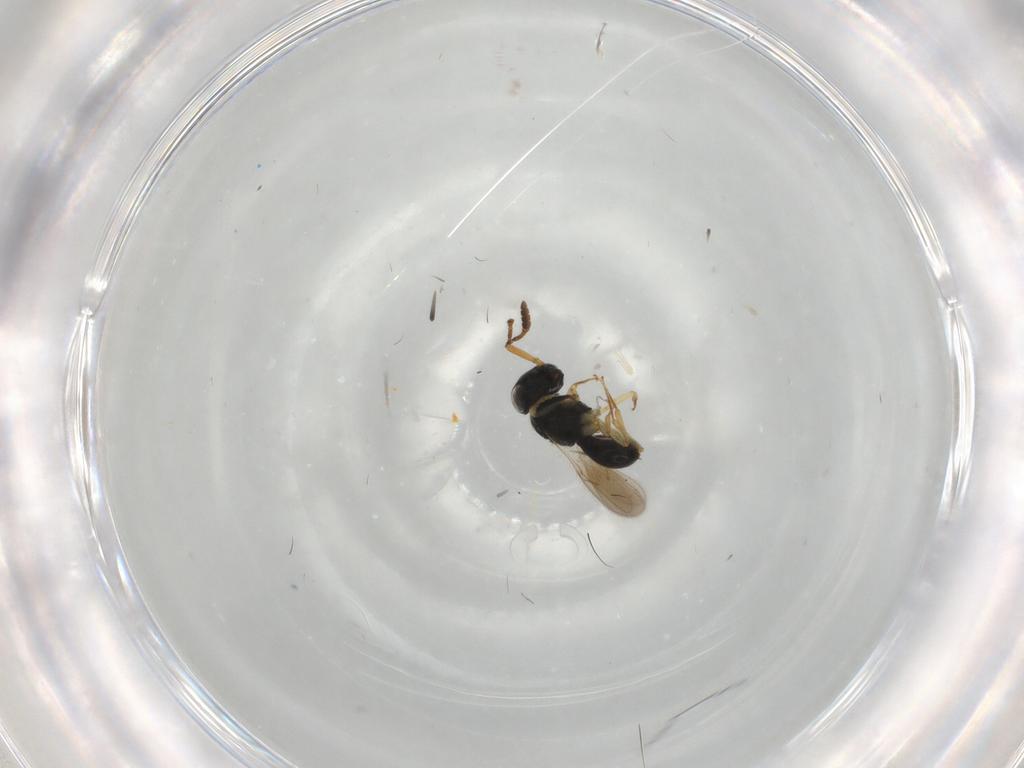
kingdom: Animalia
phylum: Arthropoda
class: Insecta
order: Hymenoptera
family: Scelionidae
